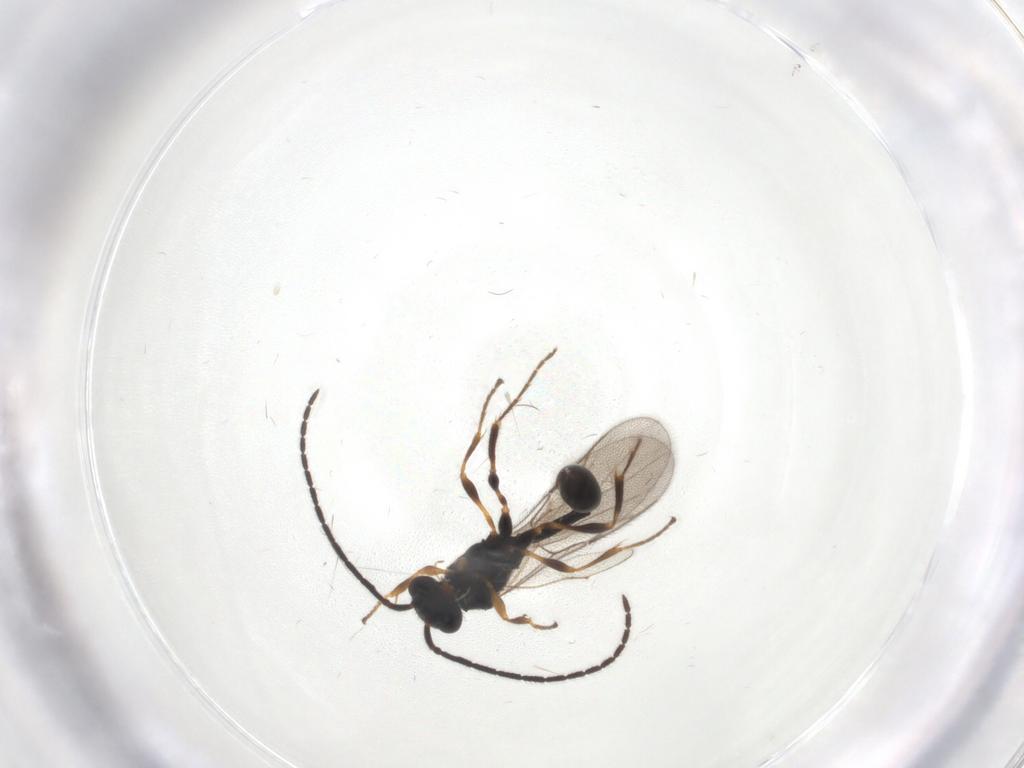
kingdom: Animalia
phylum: Arthropoda
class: Insecta
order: Hymenoptera
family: Diapriidae
